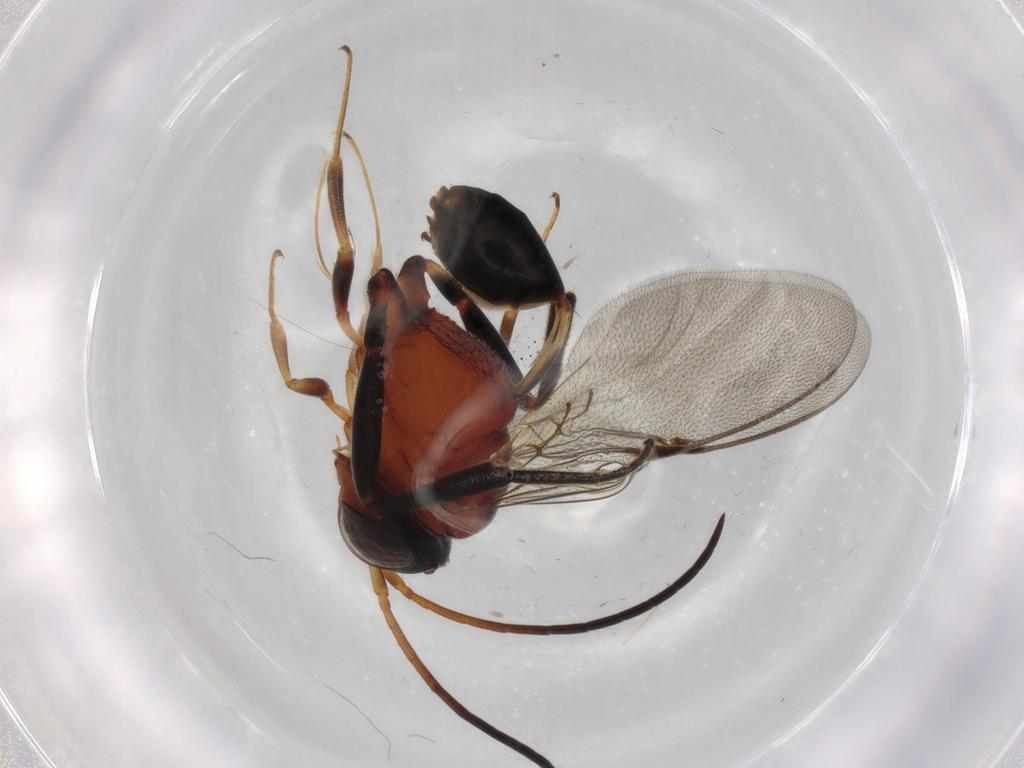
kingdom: Animalia
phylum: Arthropoda
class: Insecta
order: Hymenoptera
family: Evaniidae
